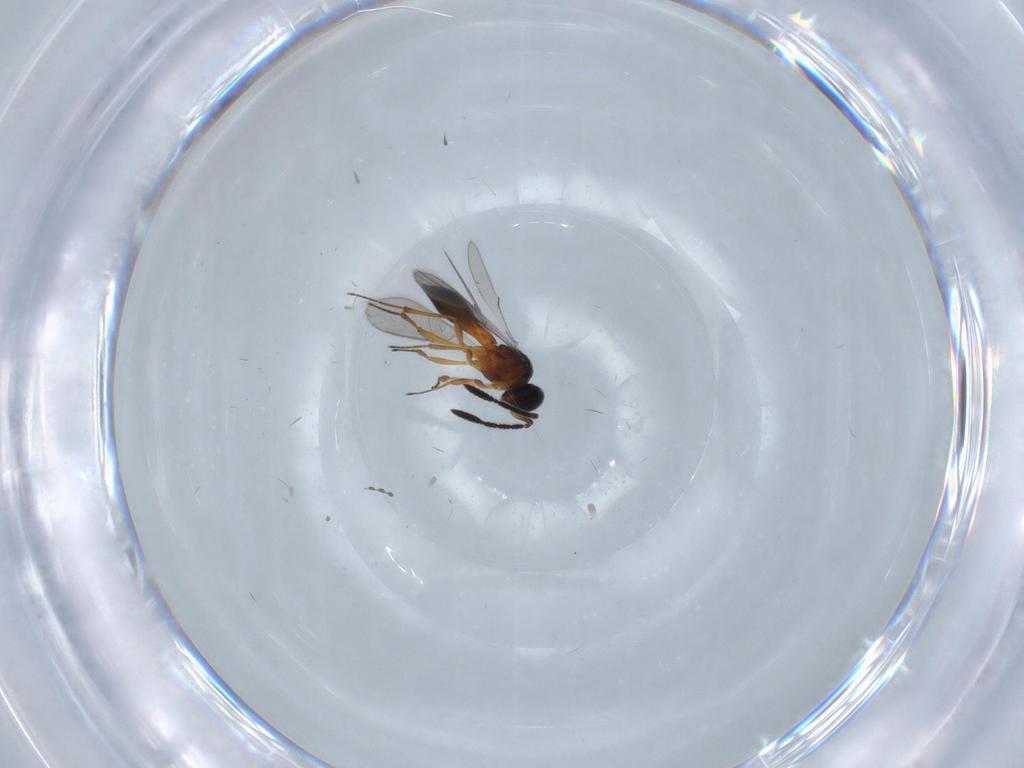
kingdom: Animalia
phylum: Arthropoda
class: Insecta
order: Hymenoptera
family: Scelionidae
